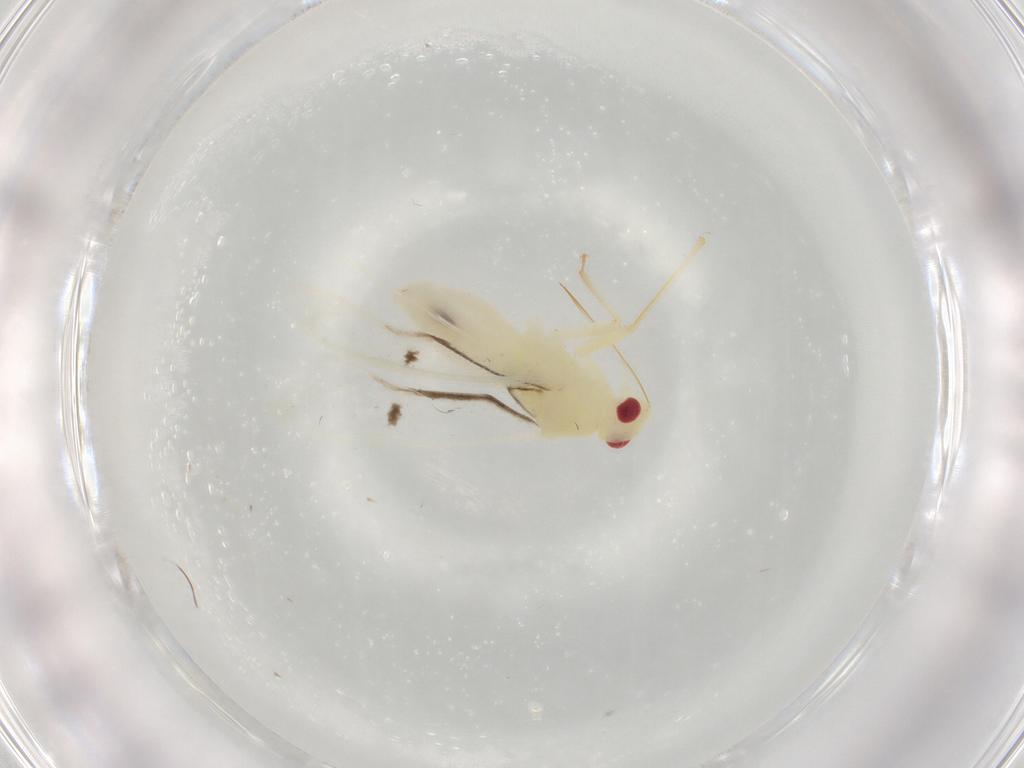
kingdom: Animalia
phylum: Arthropoda
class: Insecta
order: Hemiptera
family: Miridae
